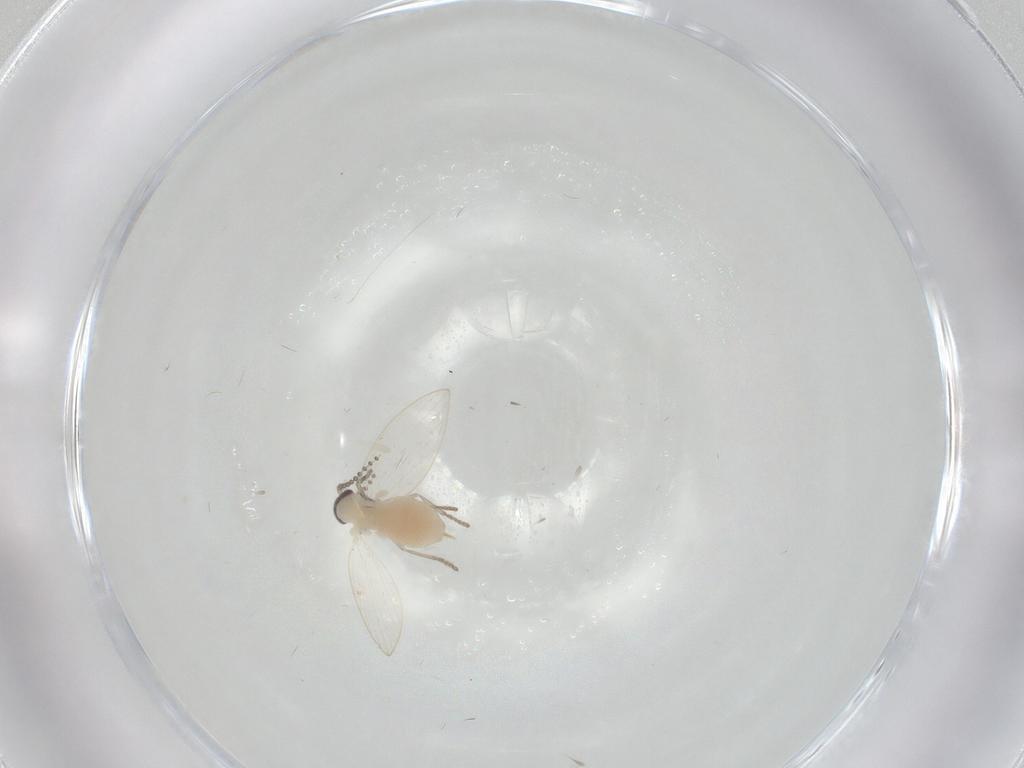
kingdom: Animalia
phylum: Arthropoda
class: Insecta
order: Diptera
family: Psychodidae
